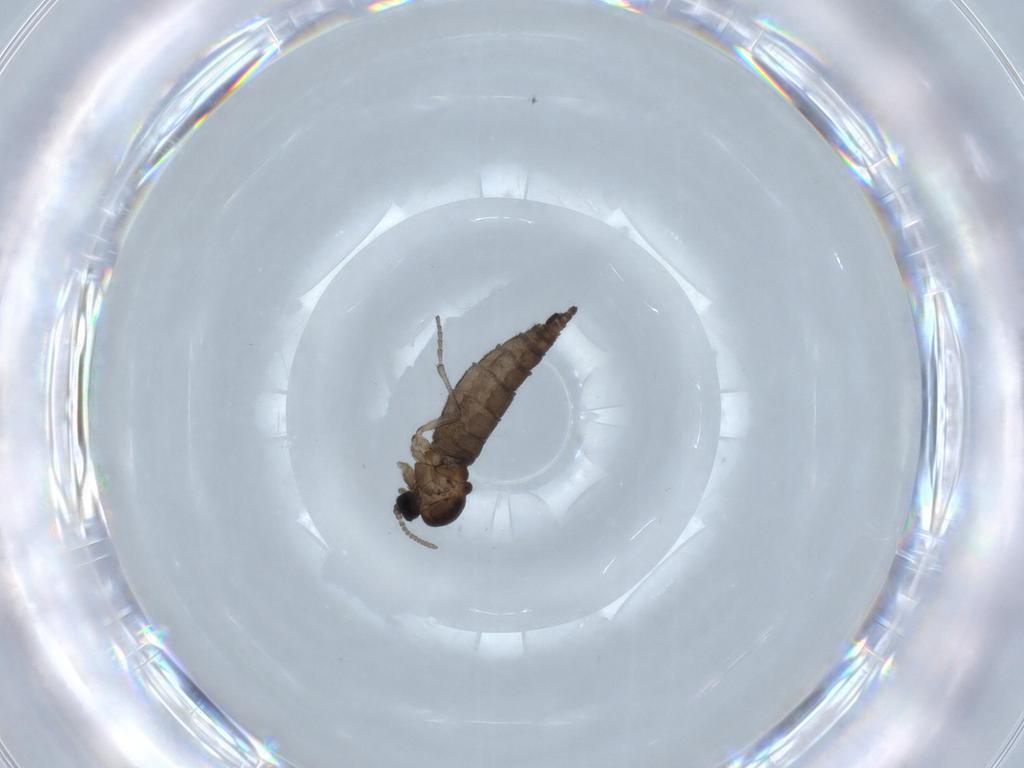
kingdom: Animalia
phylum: Arthropoda
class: Insecta
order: Diptera
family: Sciaridae
